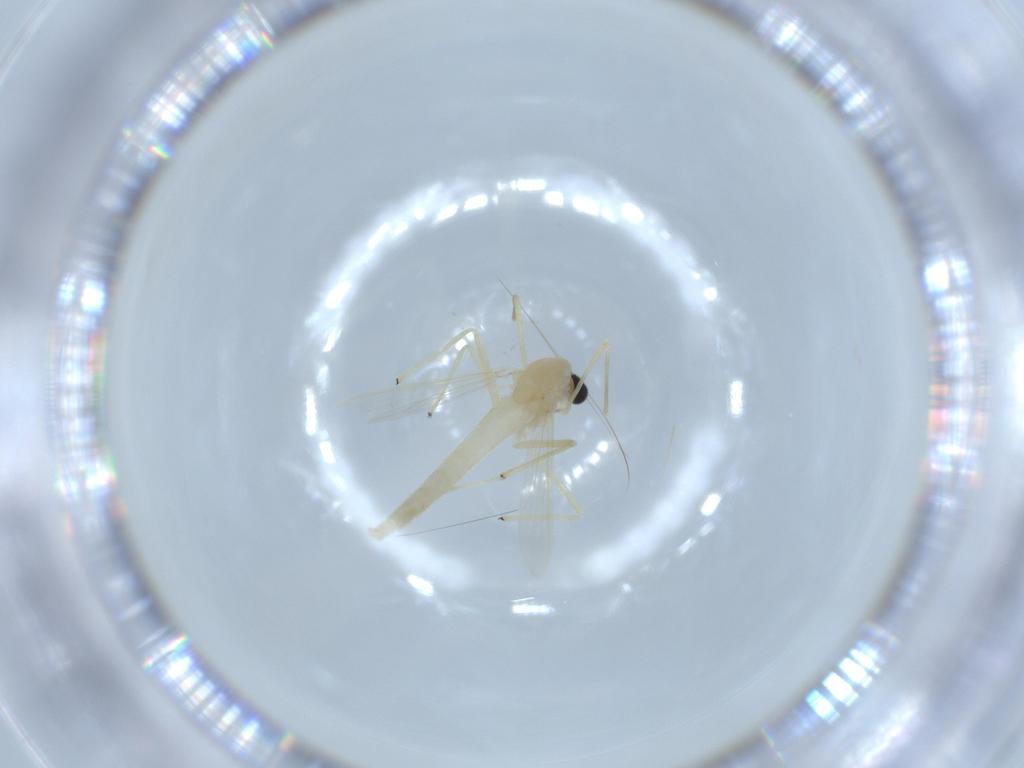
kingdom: Animalia
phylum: Arthropoda
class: Insecta
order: Diptera
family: Chironomidae
